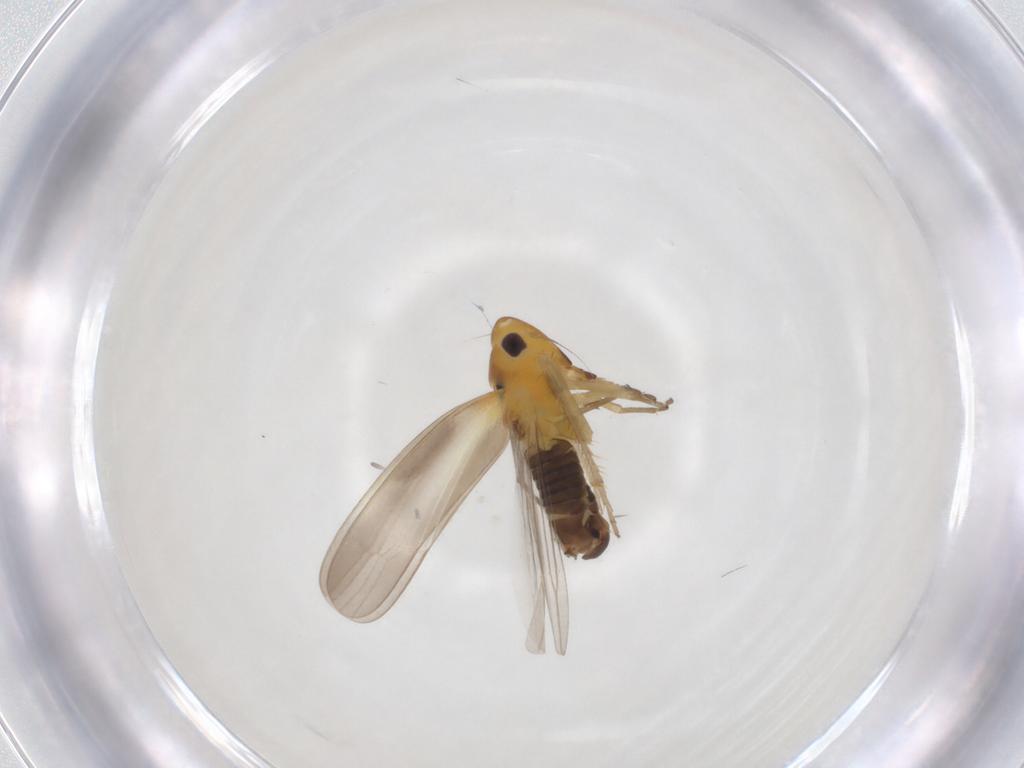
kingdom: Animalia
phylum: Arthropoda
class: Insecta
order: Hemiptera
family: Cicadellidae
